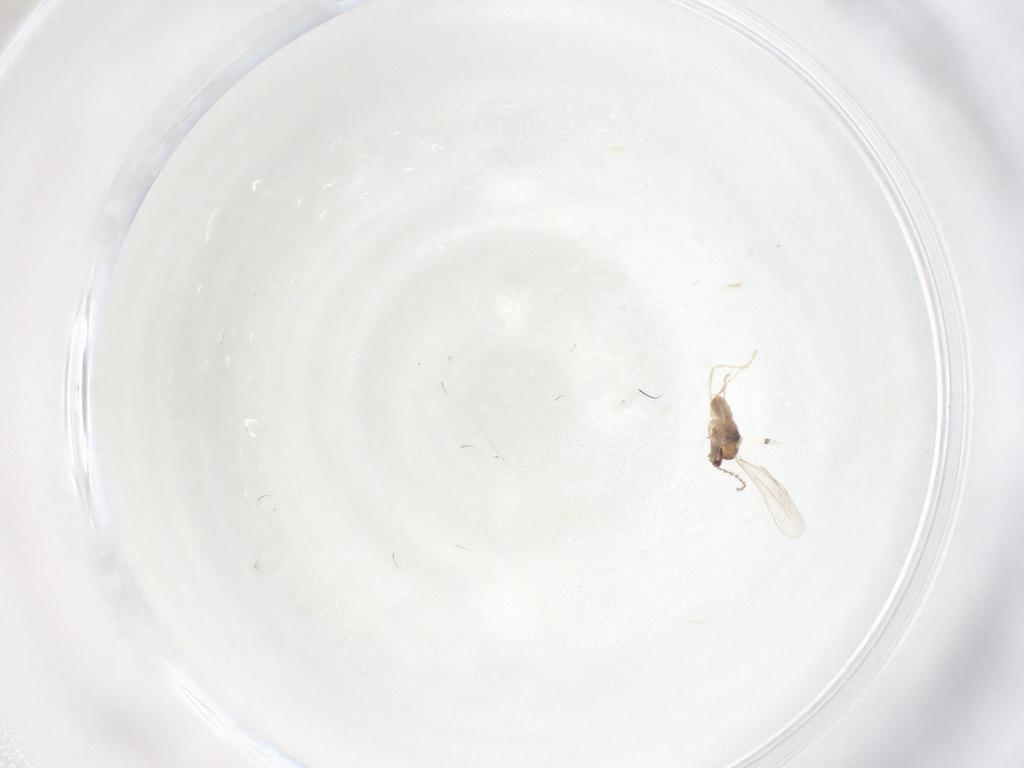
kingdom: Animalia
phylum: Arthropoda
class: Insecta
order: Diptera
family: Cecidomyiidae
